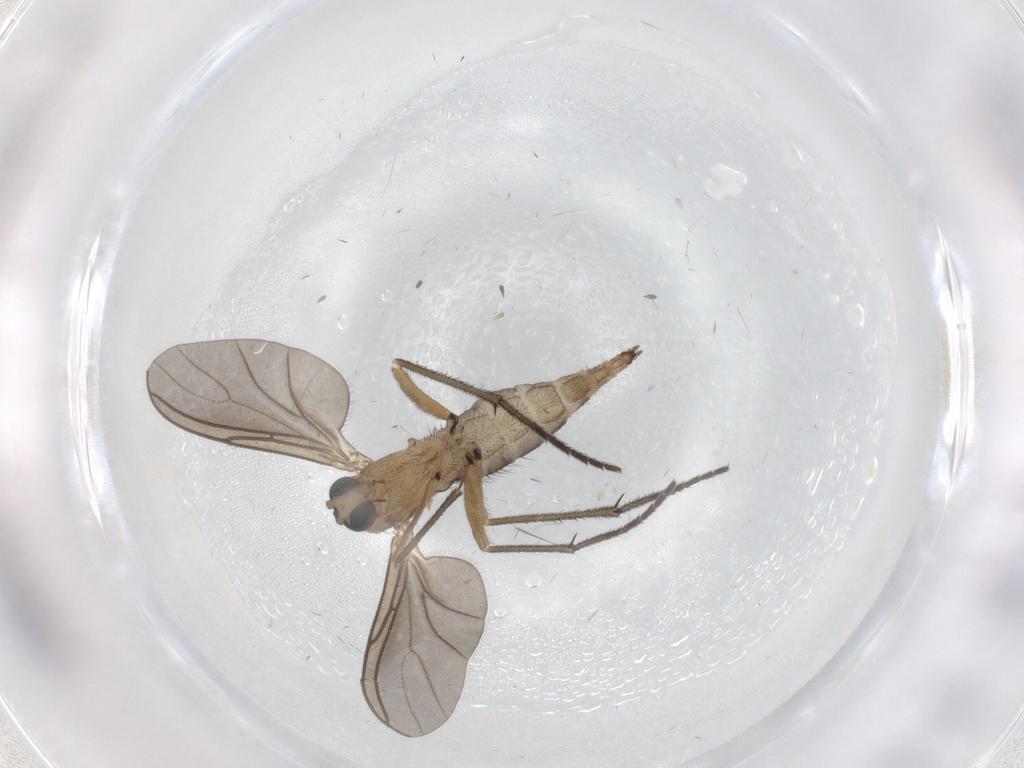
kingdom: Animalia
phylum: Arthropoda
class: Insecta
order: Diptera
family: Sciaridae
